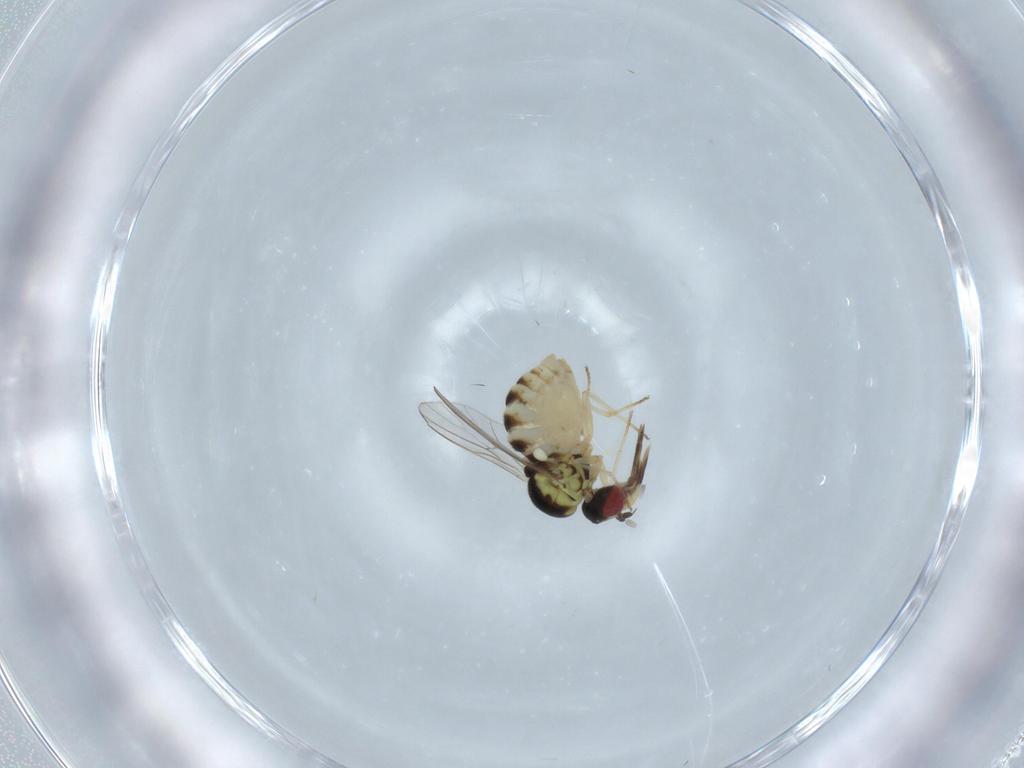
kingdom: Animalia
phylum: Arthropoda
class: Insecta
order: Diptera
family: Bombyliidae
